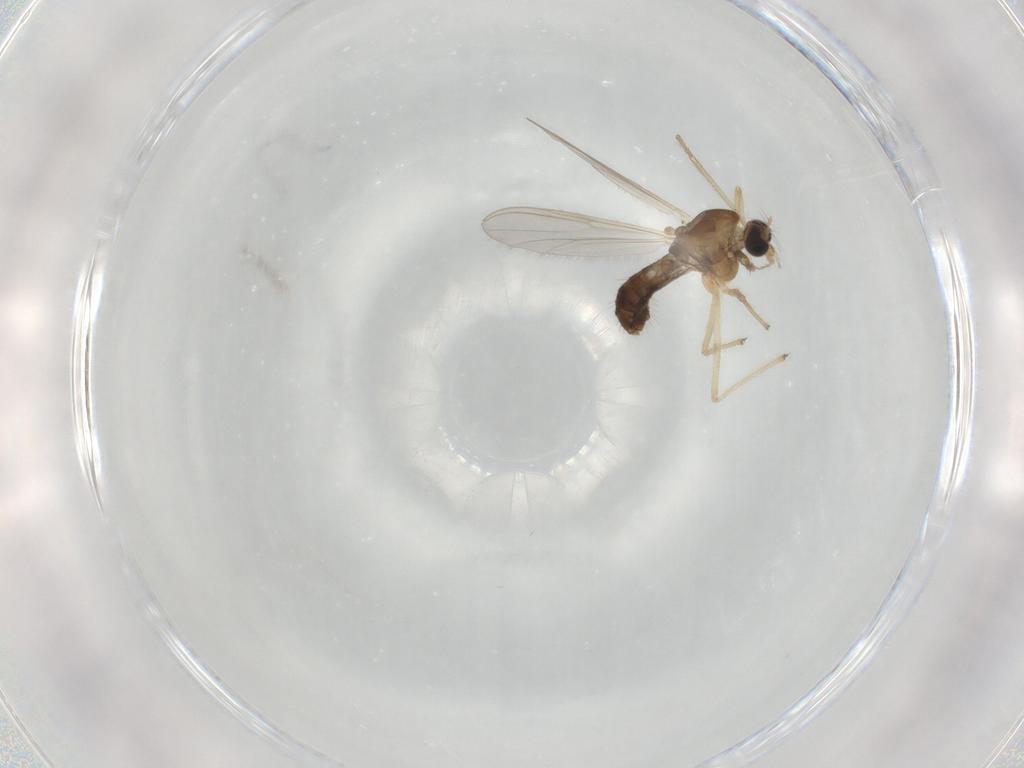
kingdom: Animalia
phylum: Arthropoda
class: Insecta
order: Diptera
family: Chironomidae
